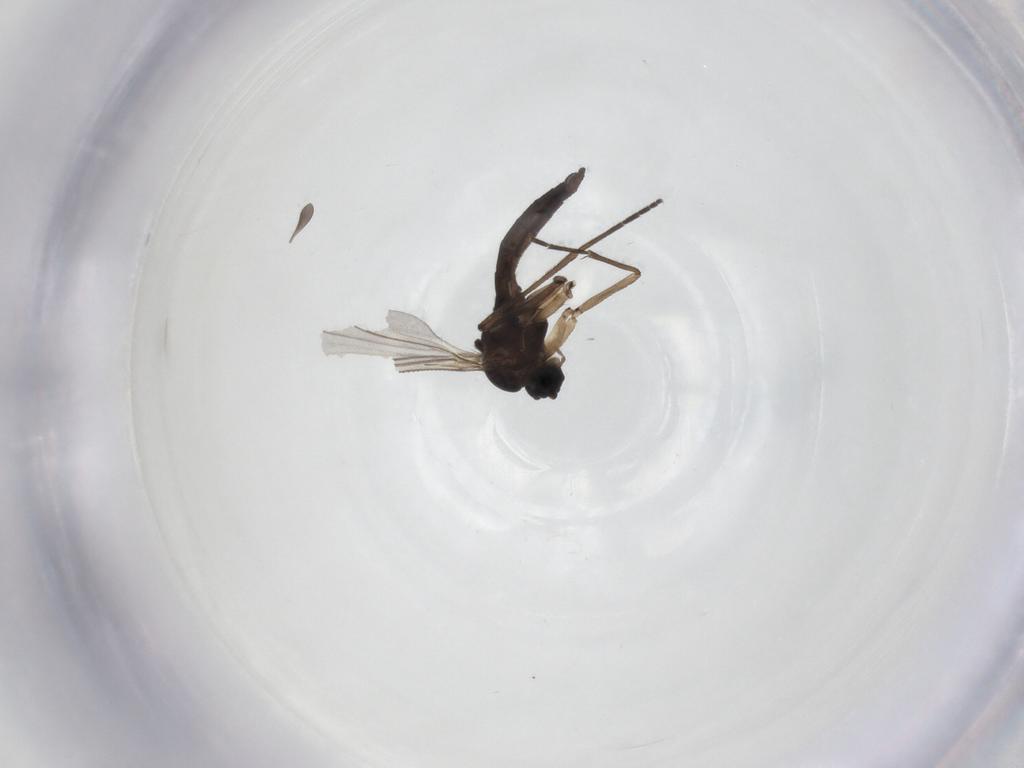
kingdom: Animalia
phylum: Arthropoda
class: Insecta
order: Diptera
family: Sciaridae
